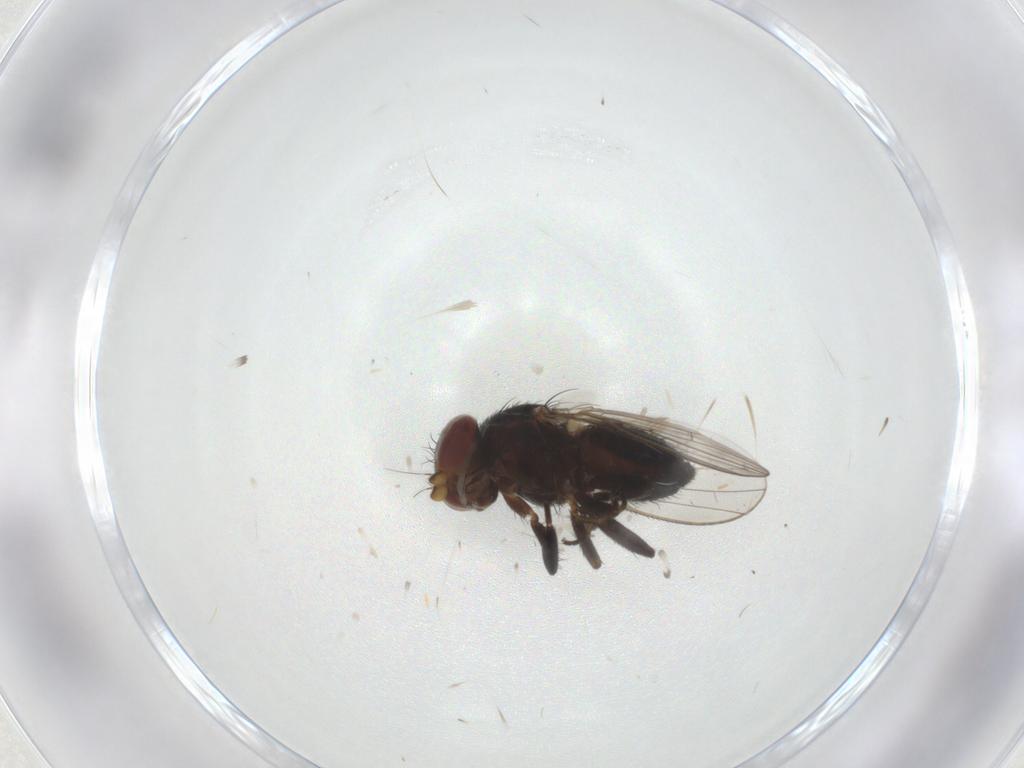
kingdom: Animalia
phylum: Arthropoda
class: Insecta
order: Diptera
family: Heleomyzidae
